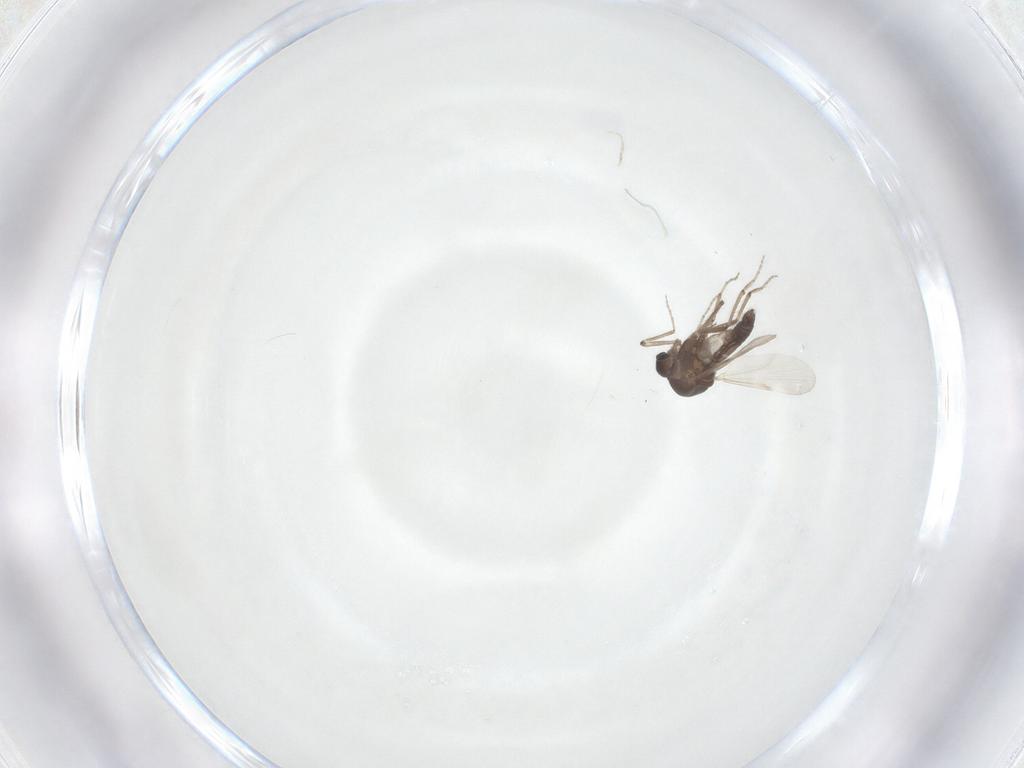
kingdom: Animalia
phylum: Arthropoda
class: Insecta
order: Diptera
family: Ceratopogonidae
